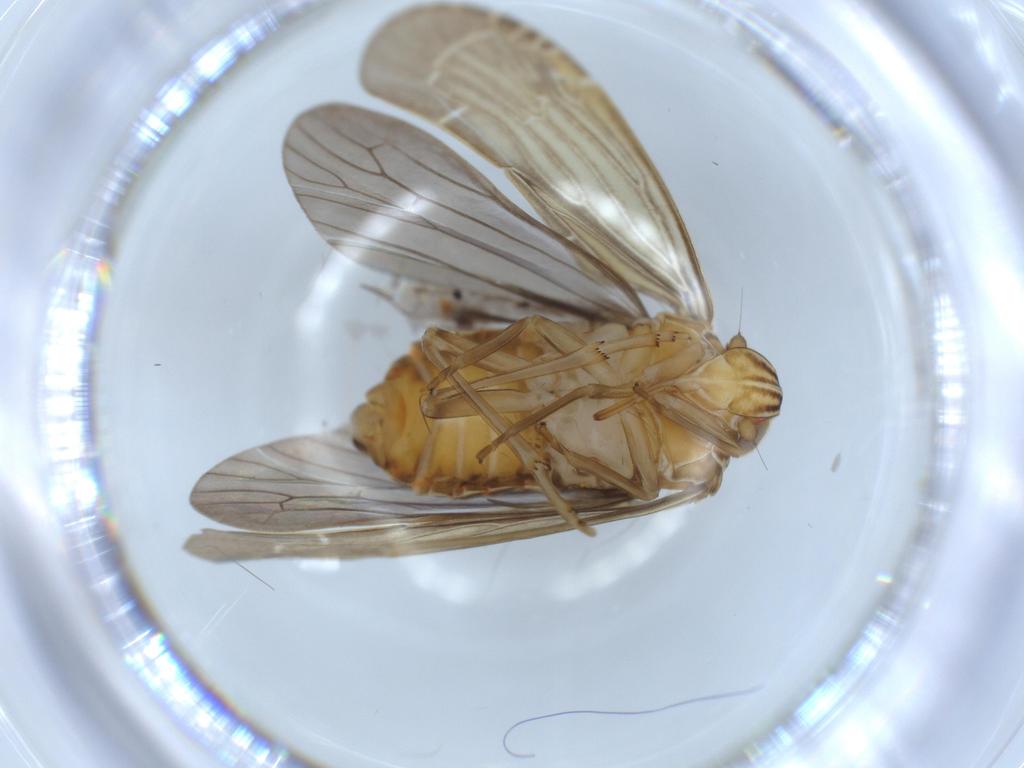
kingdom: Animalia
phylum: Arthropoda
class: Insecta
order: Hemiptera
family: Achilidae
